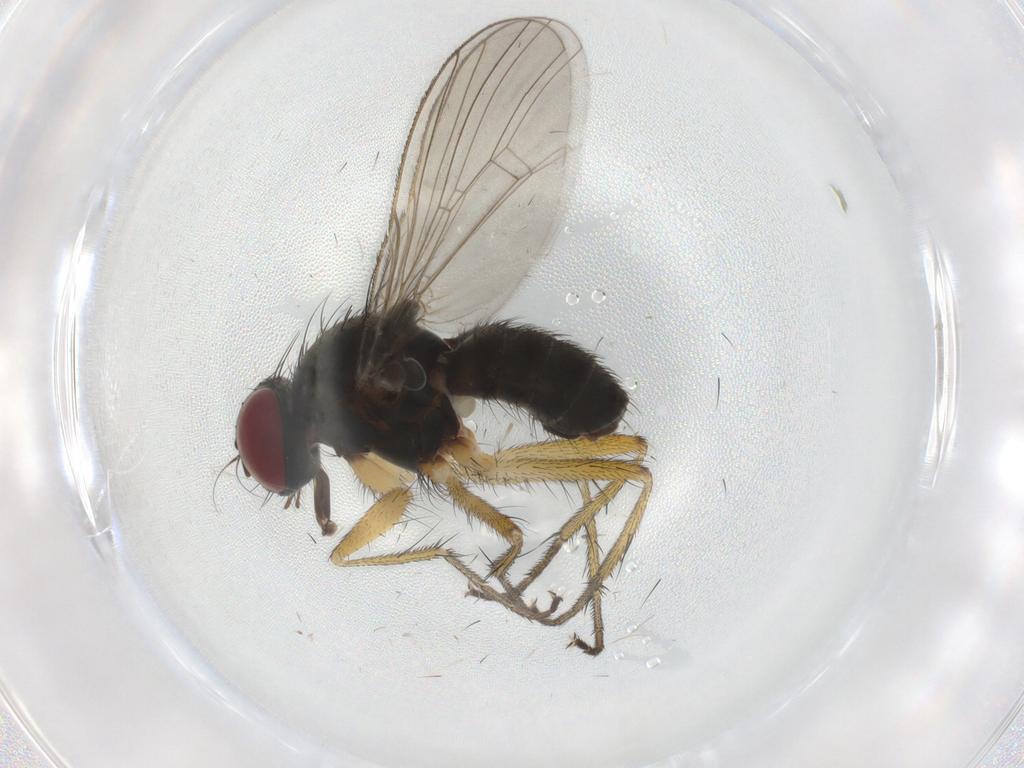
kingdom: Animalia
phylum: Arthropoda
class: Insecta
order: Diptera
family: Muscidae
